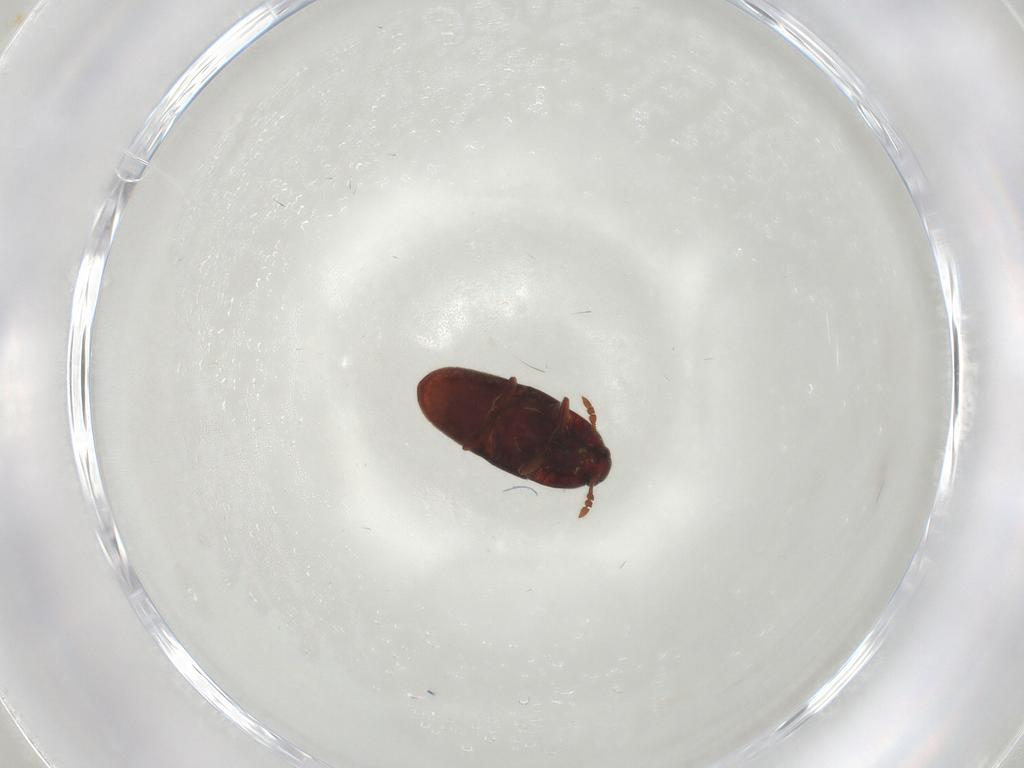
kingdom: Animalia
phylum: Arthropoda
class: Insecta
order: Coleoptera
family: Throscidae
